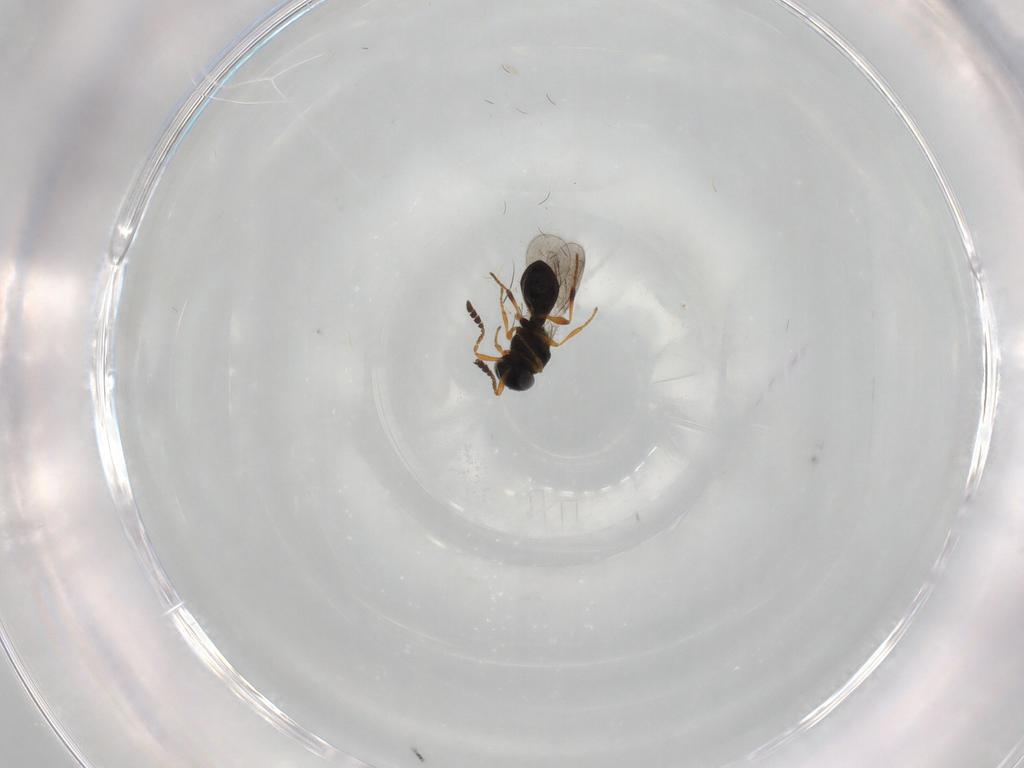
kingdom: Animalia
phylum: Arthropoda
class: Insecta
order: Hymenoptera
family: Platygastridae
